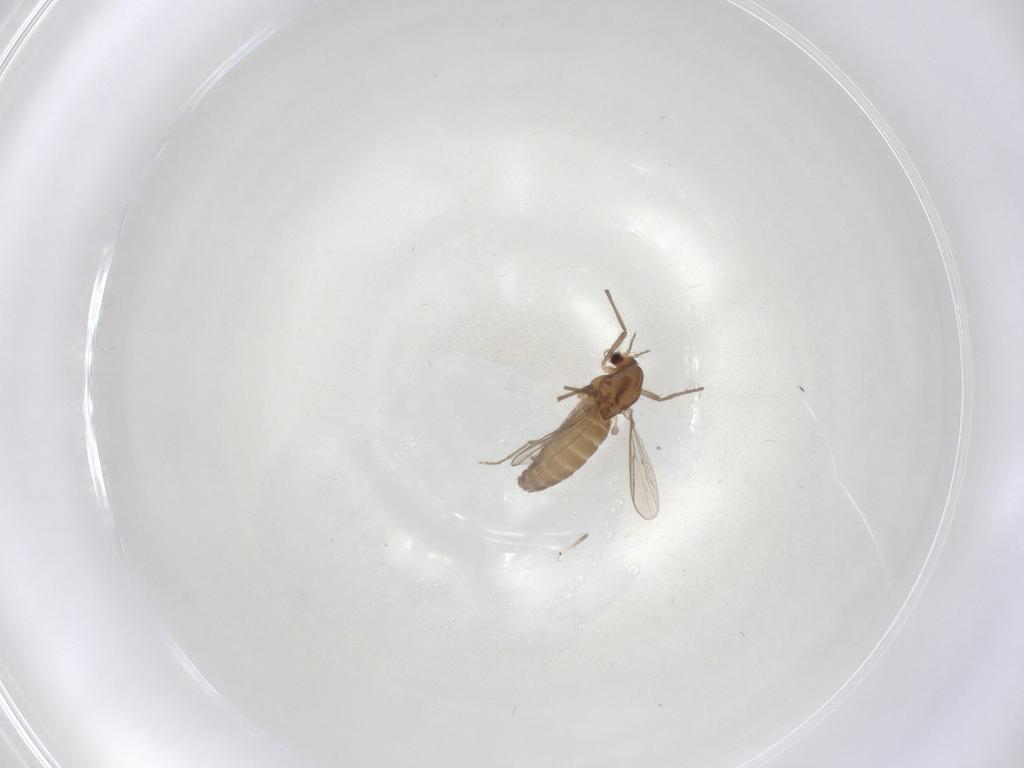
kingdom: Animalia
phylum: Arthropoda
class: Insecta
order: Diptera
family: Chironomidae
